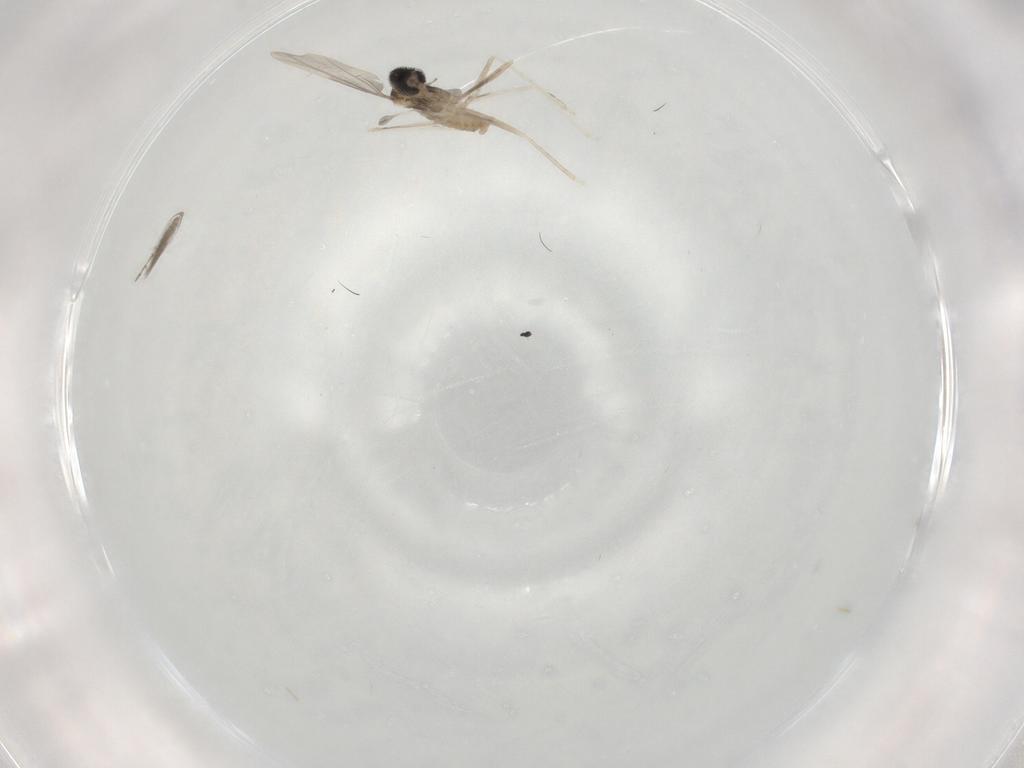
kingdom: Animalia
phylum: Arthropoda
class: Insecta
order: Diptera
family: Cecidomyiidae
